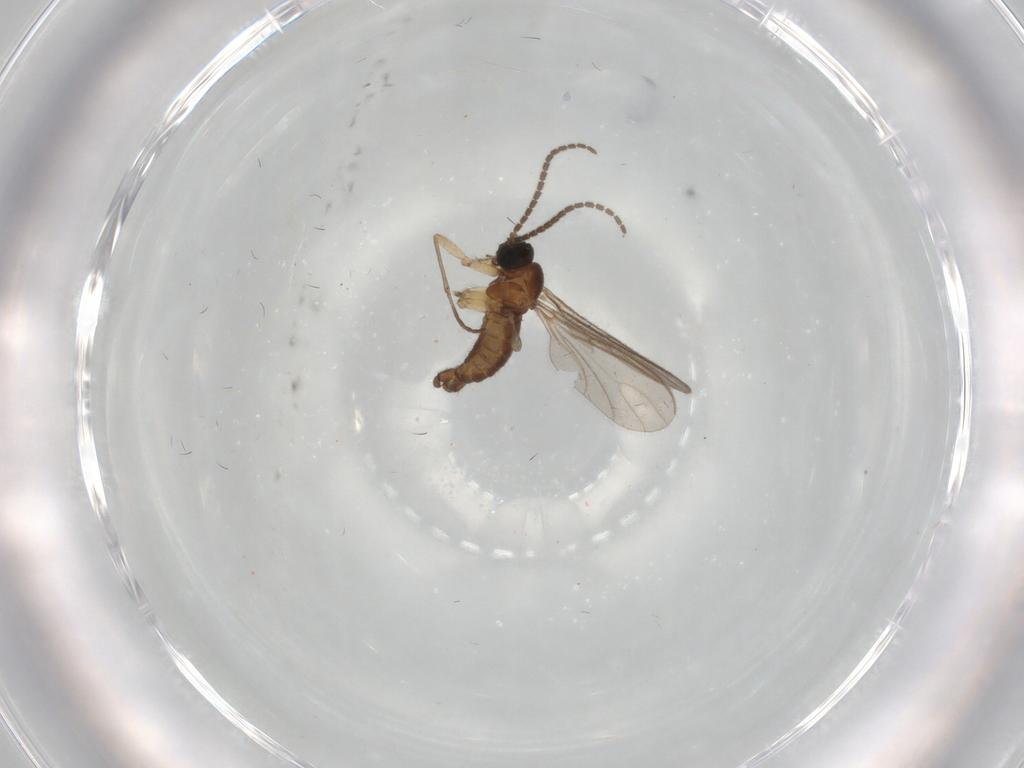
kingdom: Animalia
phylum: Arthropoda
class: Insecta
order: Diptera
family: Sciaridae
